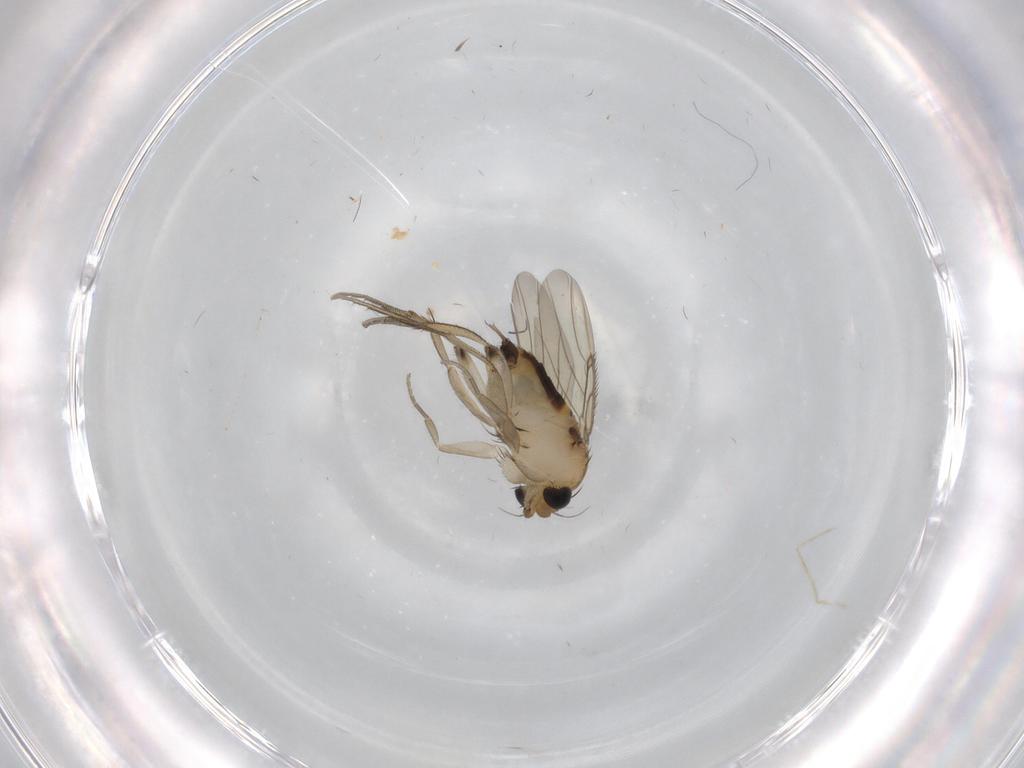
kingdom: Animalia
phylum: Arthropoda
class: Insecta
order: Diptera
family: Phoridae
